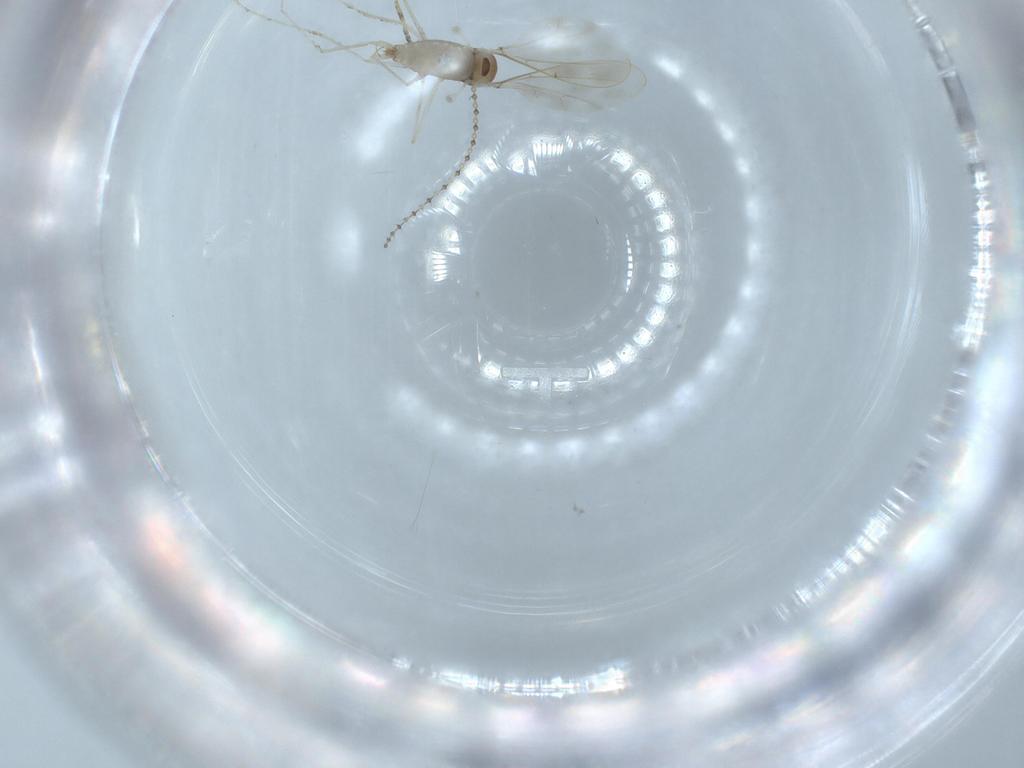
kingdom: Animalia
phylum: Arthropoda
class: Insecta
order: Diptera
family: Cecidomyiidae
